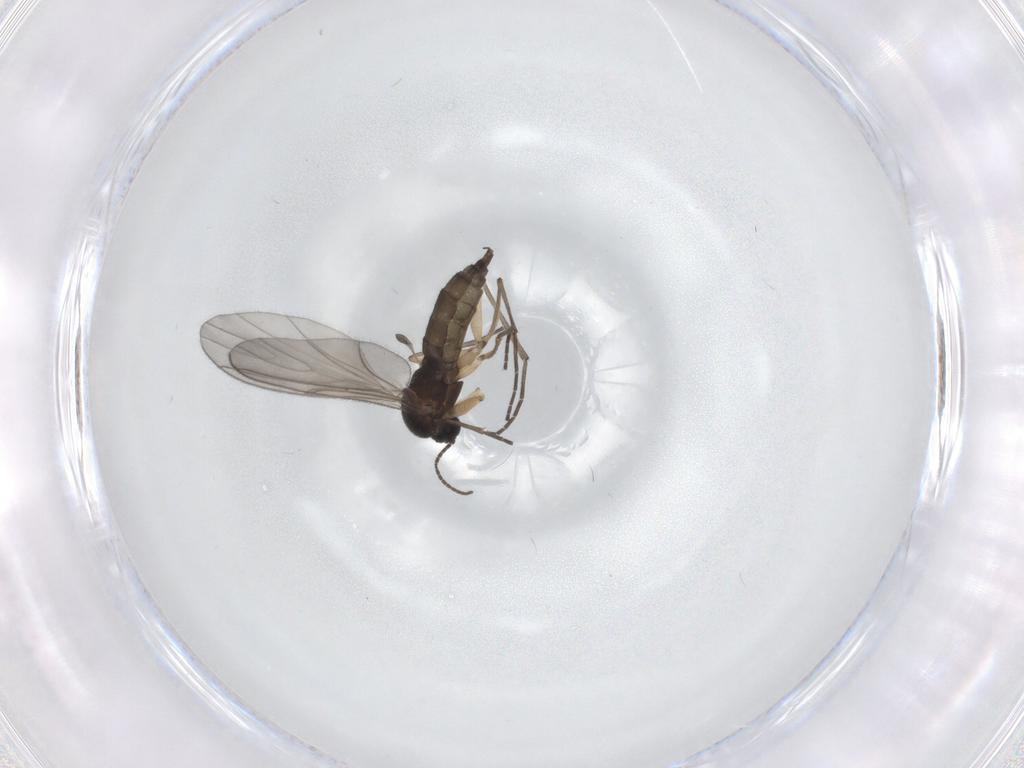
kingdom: Animalia
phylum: Arthropoda
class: Insecta
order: Diptera
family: Sciaridae
